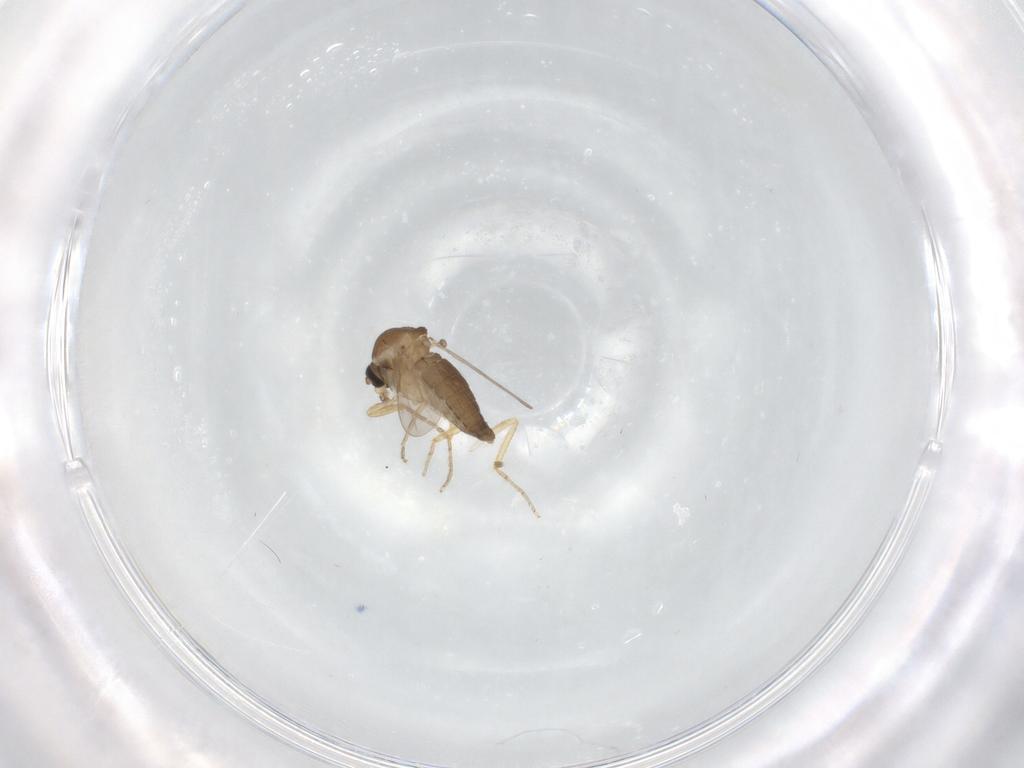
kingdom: Animalia
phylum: Arthropoda
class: Insecta
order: Diptera
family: Ceratopogonidae
